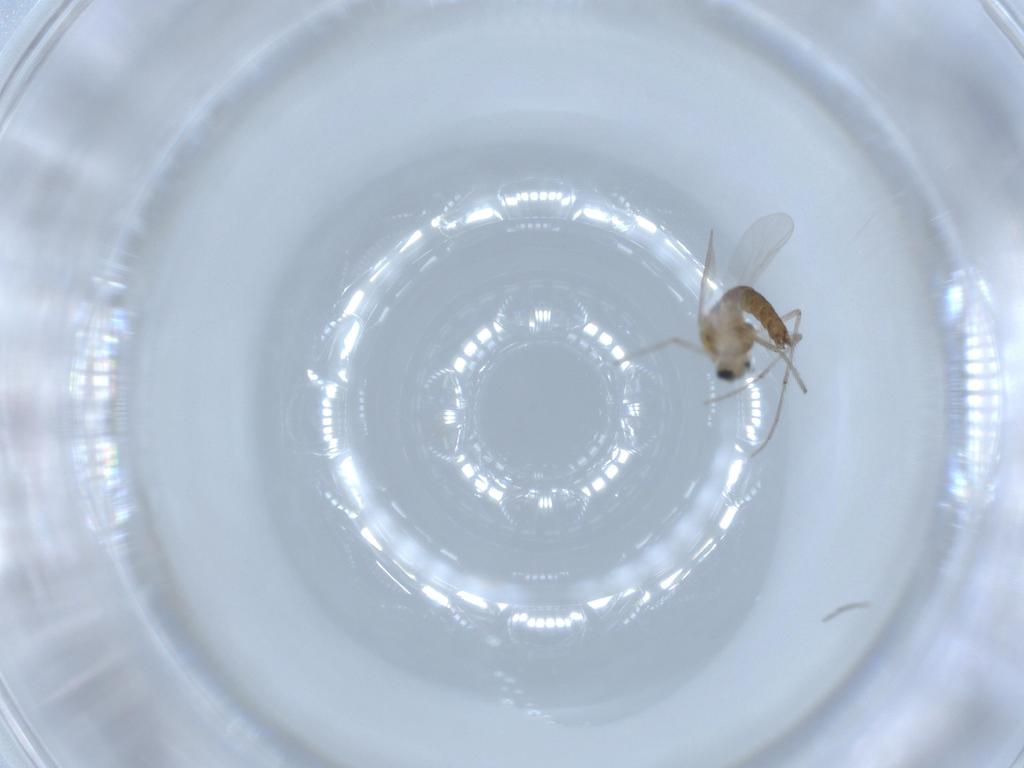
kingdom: Animalia
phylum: Arthropoda
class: Insecta
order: Diptera
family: Chironomidae
